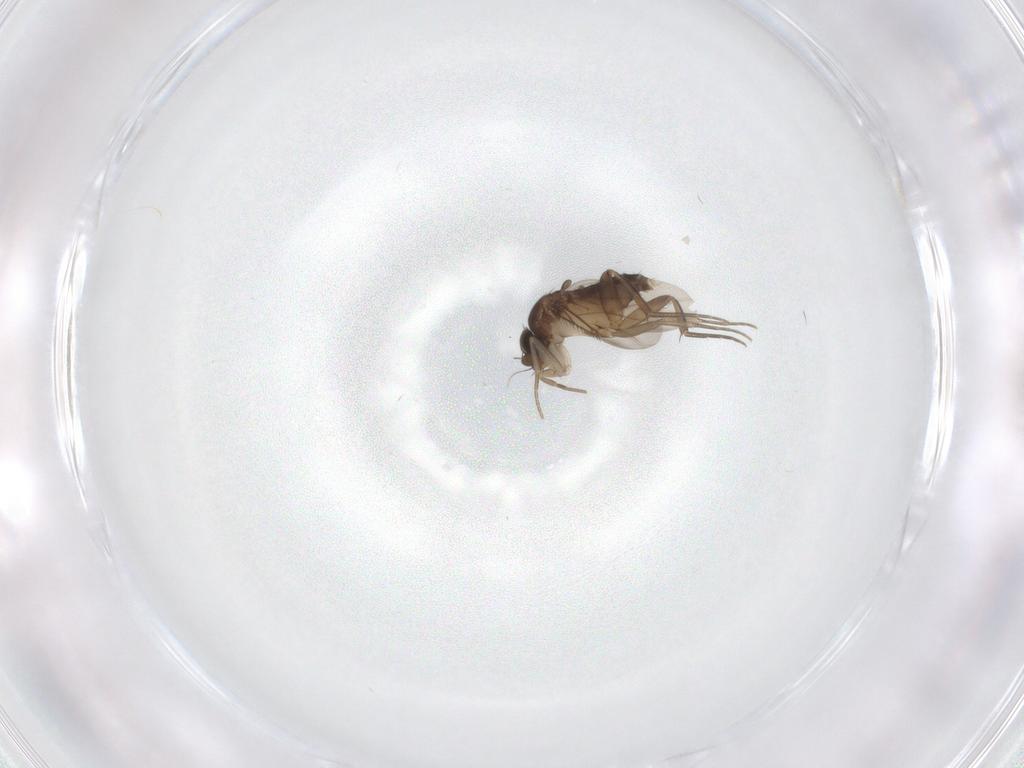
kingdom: Animalia
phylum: Arthropoda
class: Insecta
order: Diptera
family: Phoridae
